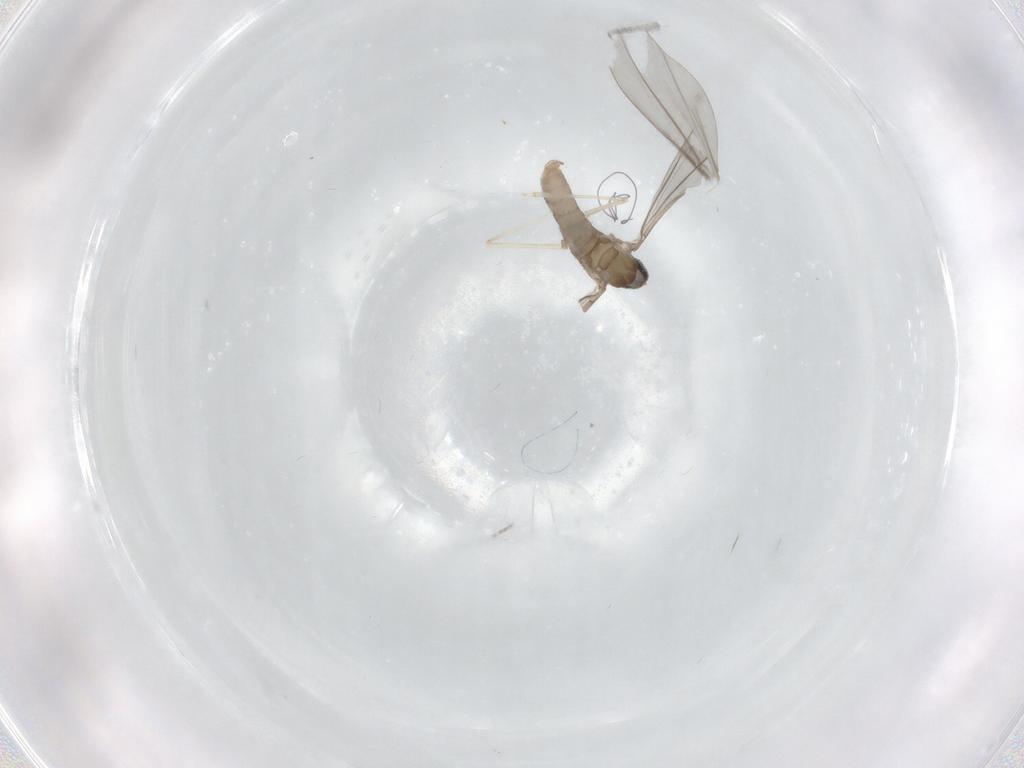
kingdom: Animalia
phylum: Arthropoda
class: Insecta
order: Diptera
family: Cecidomyiidae
